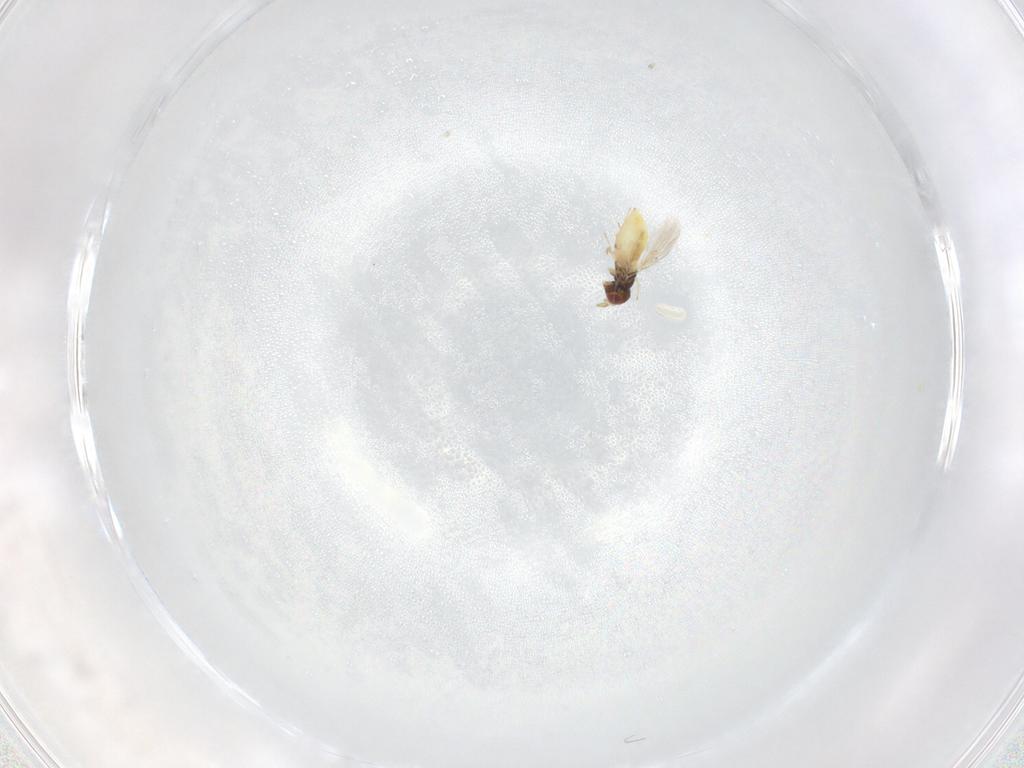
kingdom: Animalia
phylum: Arthropoda
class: Insecta
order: Hymenoptera
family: Trichogrammatidae
